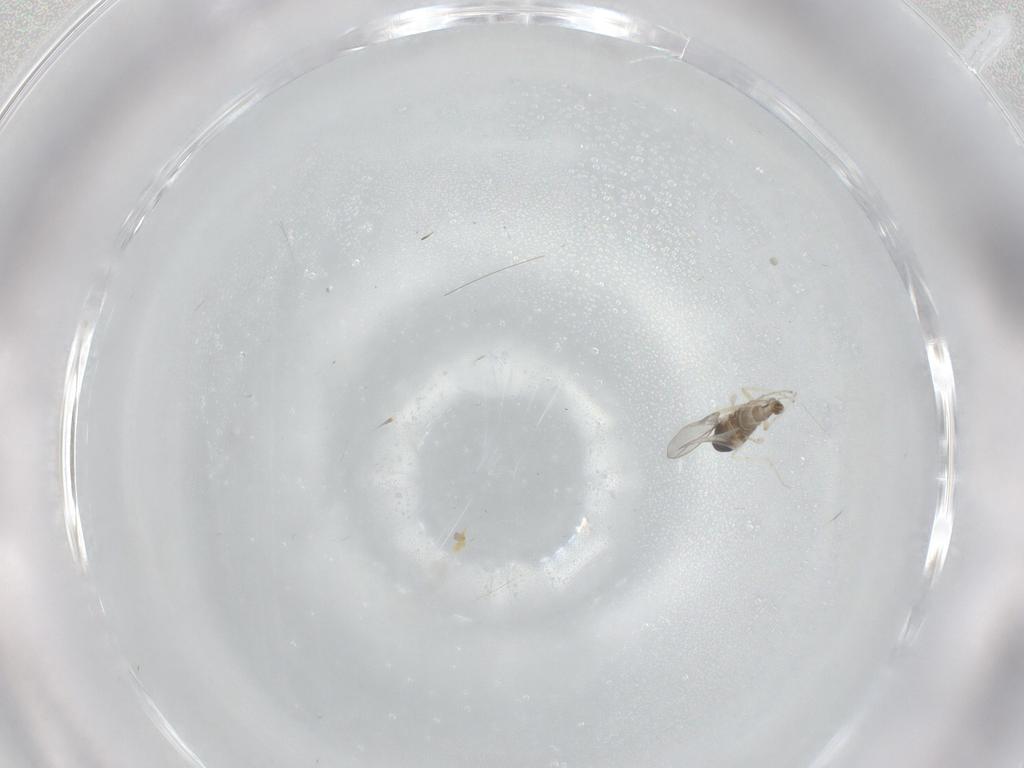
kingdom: Animalia
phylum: Arthropoda
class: Insecta
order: Diptera
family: Cecidomyiidae
